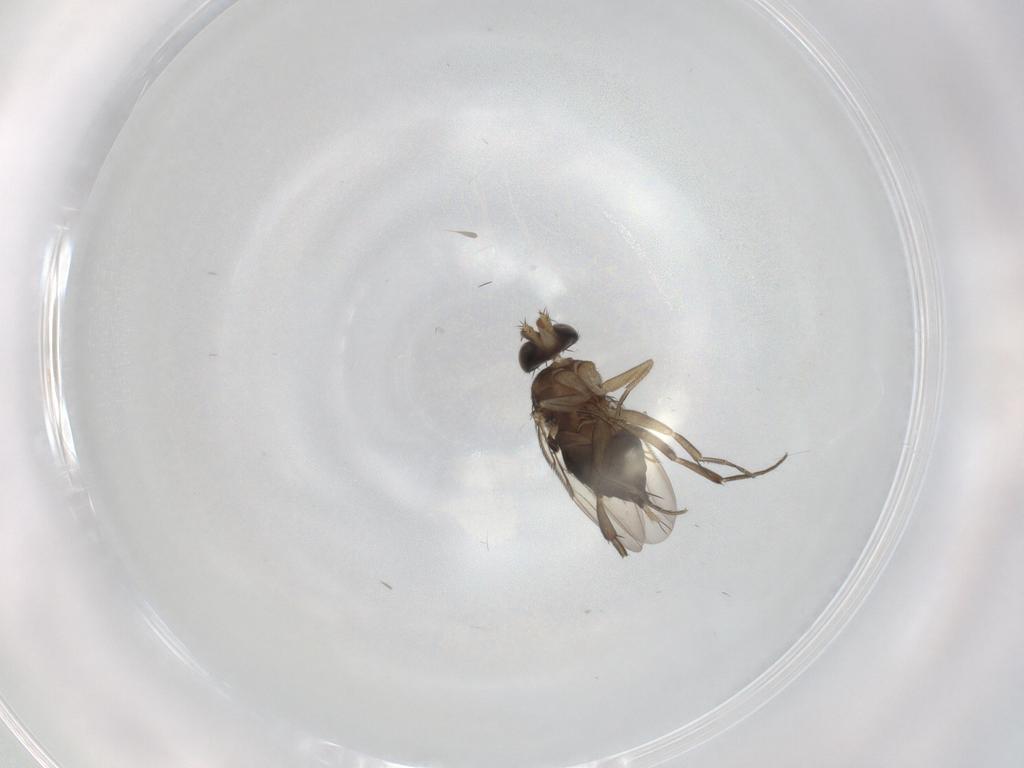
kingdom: Animalia
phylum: Arthropoda
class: Insecta
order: Diptera
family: Phoridae
